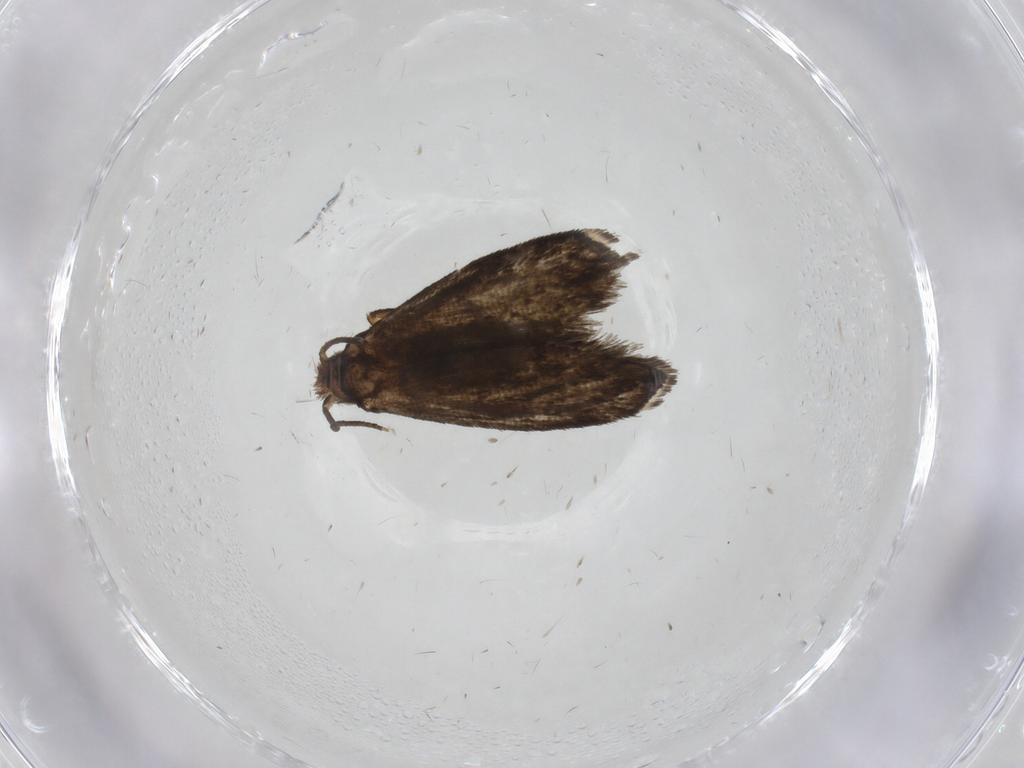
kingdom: Animalia
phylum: Arthropoda
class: Insecta
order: Lepidoptera
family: Tineidae
